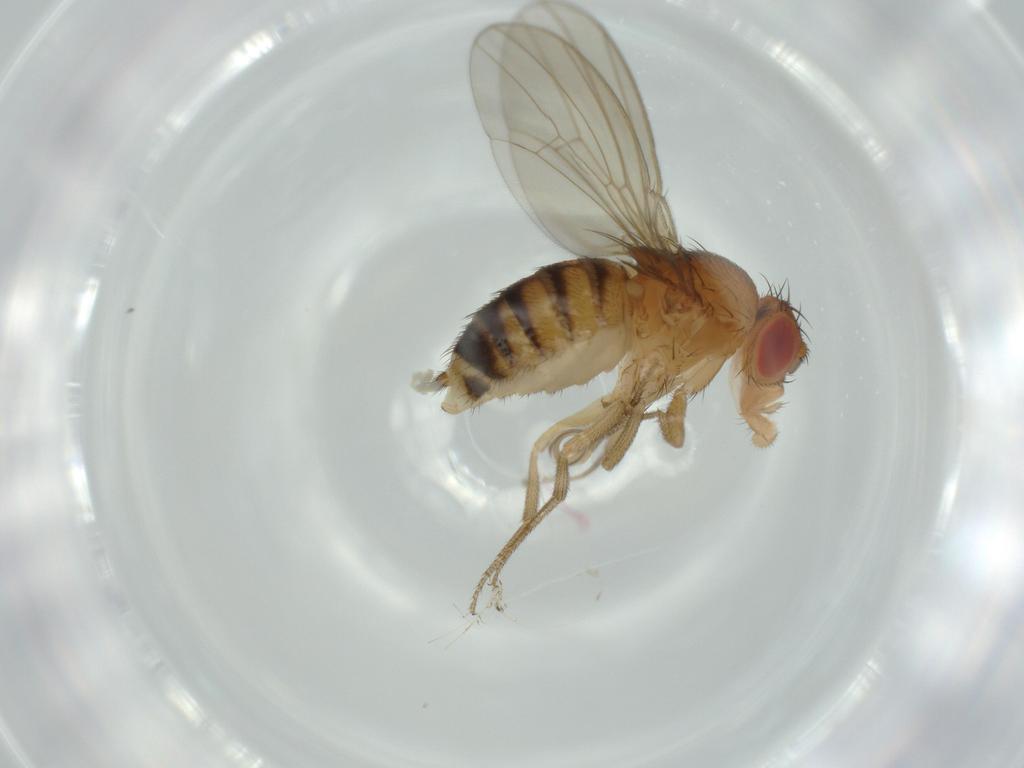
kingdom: Animalia
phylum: Arthropoda
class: Insecta
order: Diptera
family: Drosophilidae
